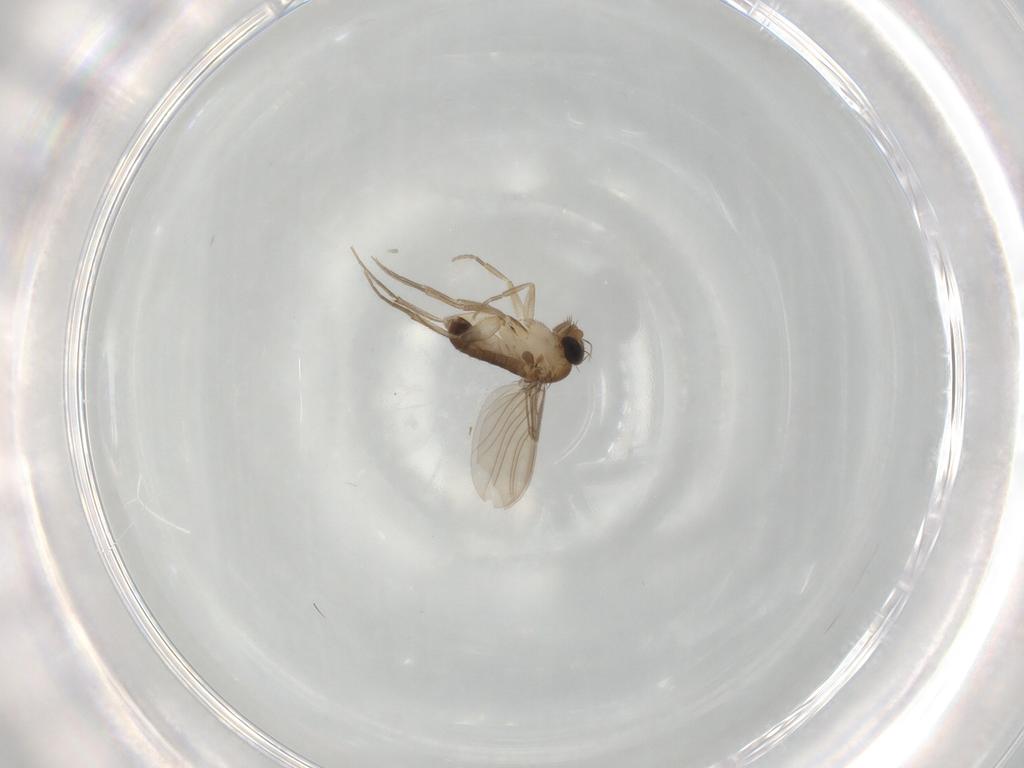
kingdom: Animalia
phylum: Arthropoda
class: Insecta
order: Diptera
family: Phoridae
